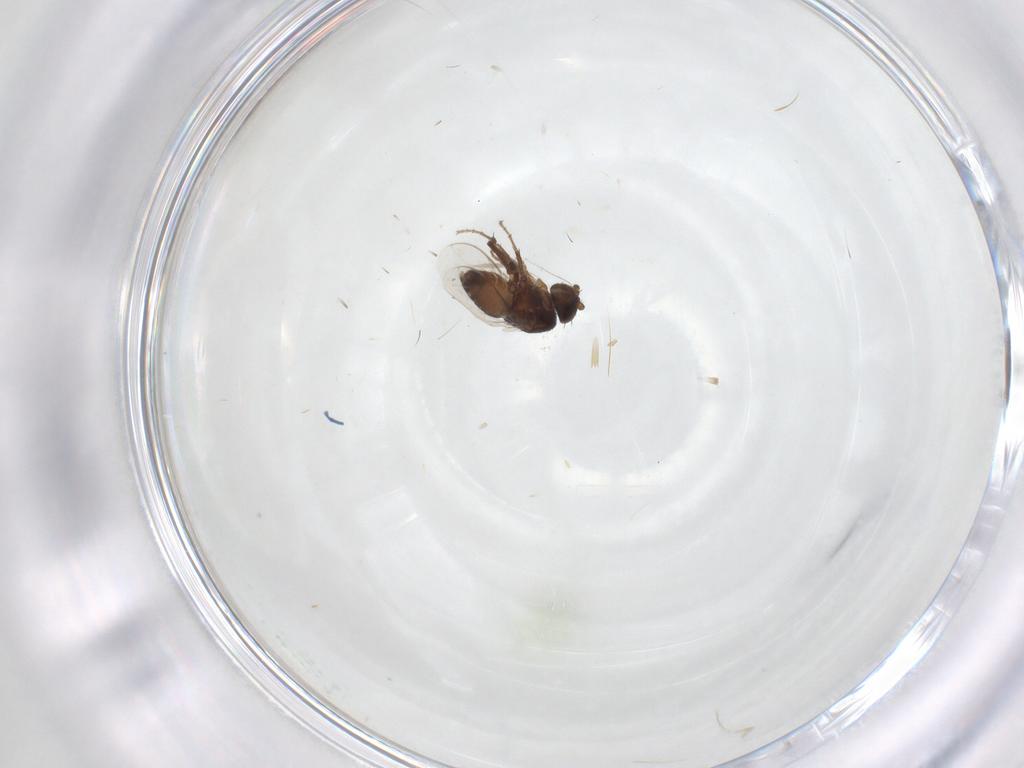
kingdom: Animalia
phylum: Arthropoda
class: Insecta
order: Diptera
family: Sphaeroceridae
